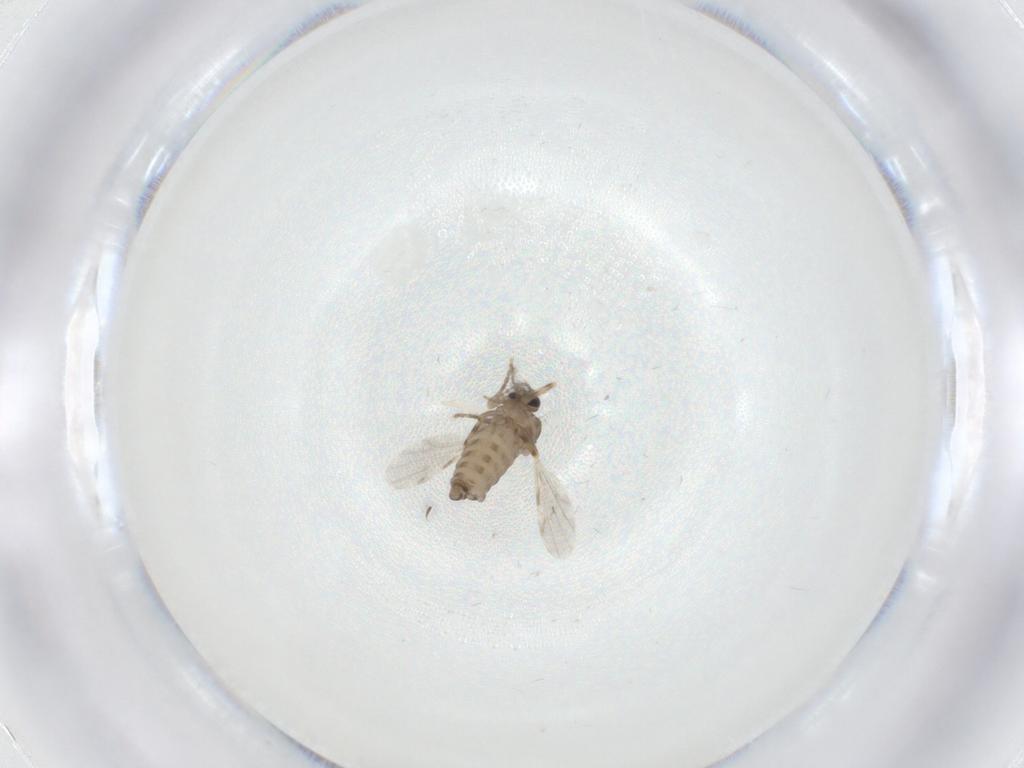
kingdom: Animalia
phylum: Arthropoda
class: Insecta
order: Diptera
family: Ceratopogonidae
